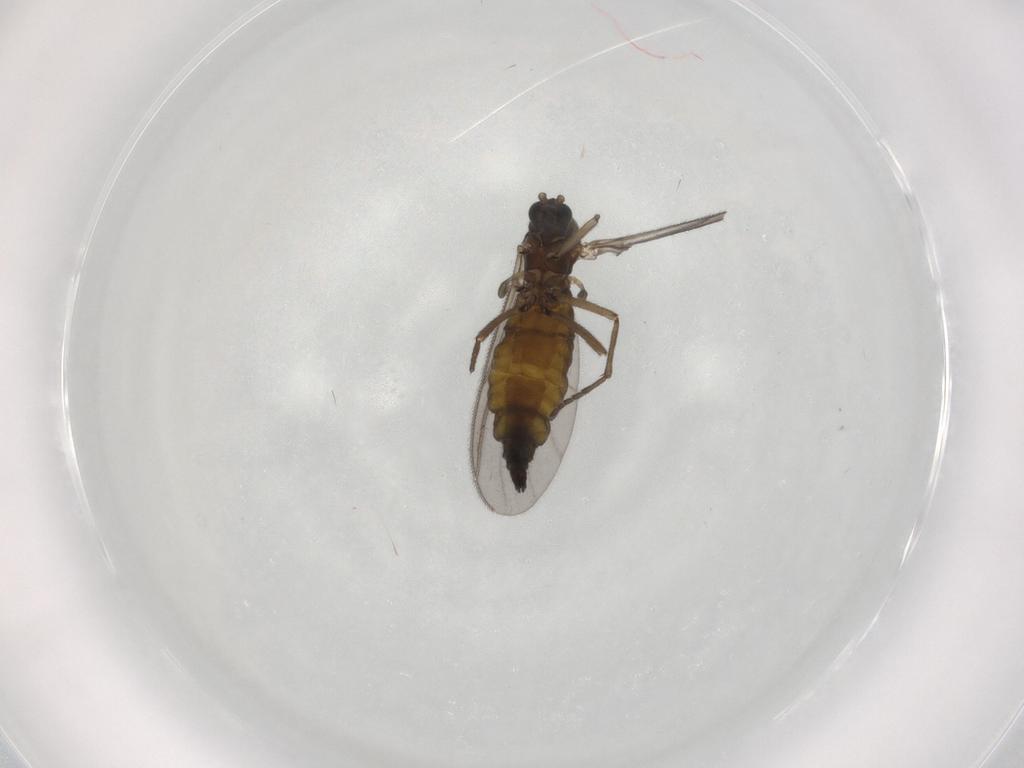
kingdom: Animalia
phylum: Arthropoda
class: Insecta
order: Diptera
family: Sciaridae
